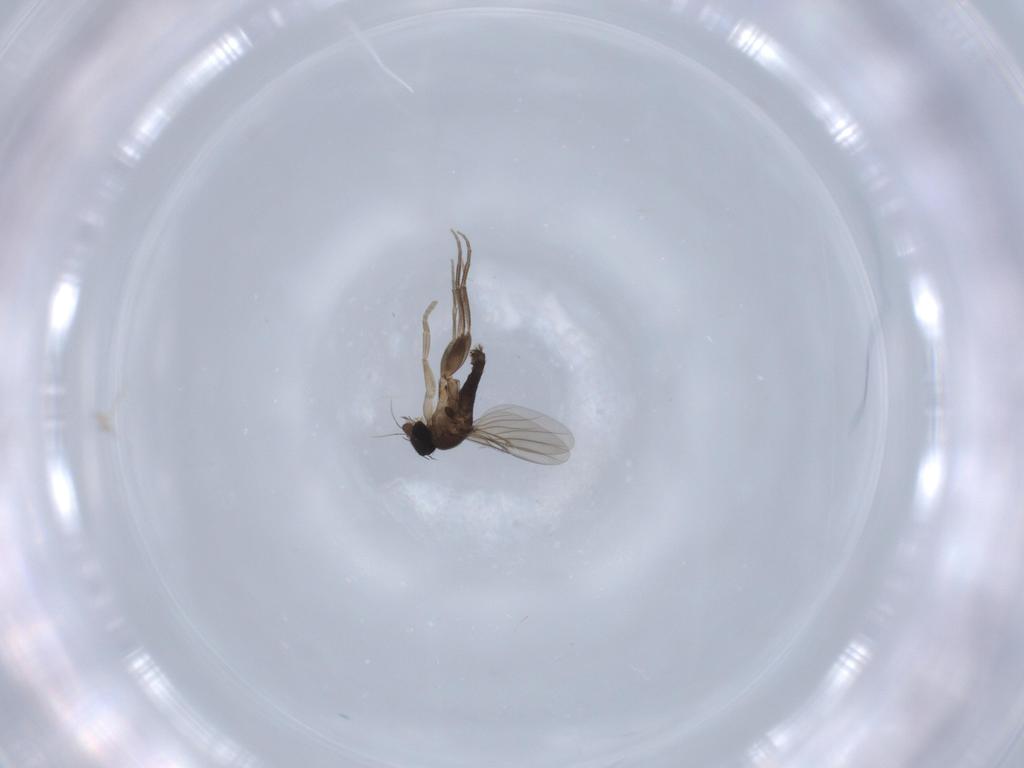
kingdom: Animalia
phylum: Arthropoda
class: Insecta
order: Diptera
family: Phoridae
